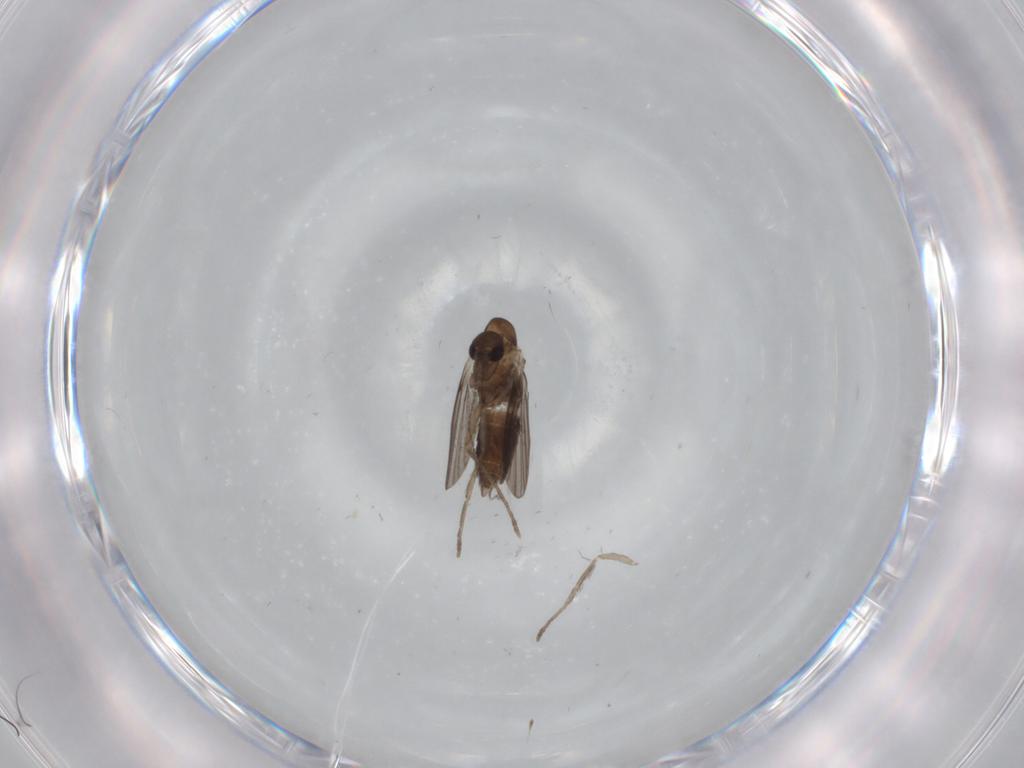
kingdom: Animalia
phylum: Arthropoda
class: Insecta
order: Diptera
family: Psychodidae
